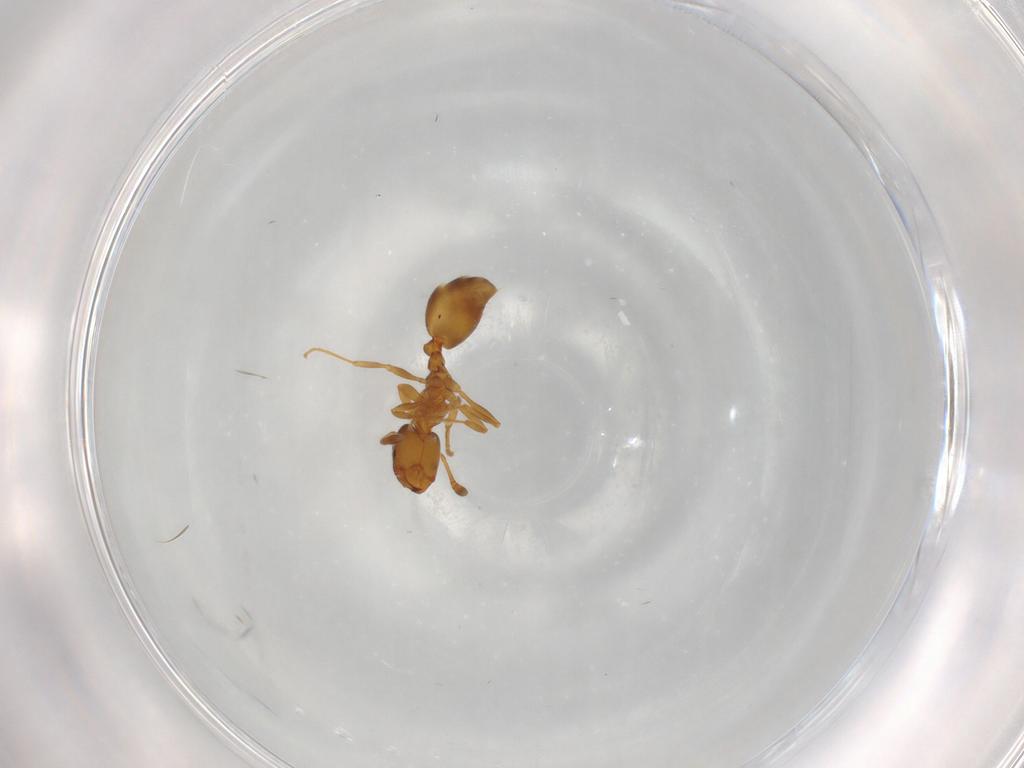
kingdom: Animalia
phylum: Arthropoda
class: Insecta
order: Hymenoptera
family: Formicidae
